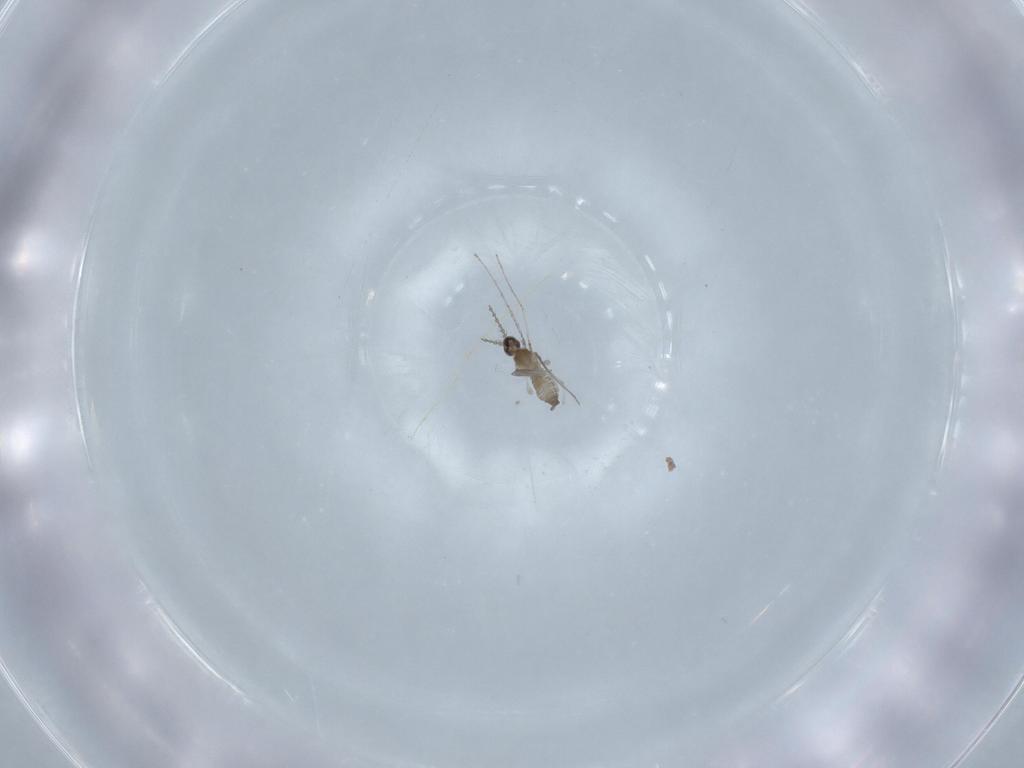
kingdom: Animalia
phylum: Arthropoda
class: Insecta
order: Diptera
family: Cecidomyiidae
